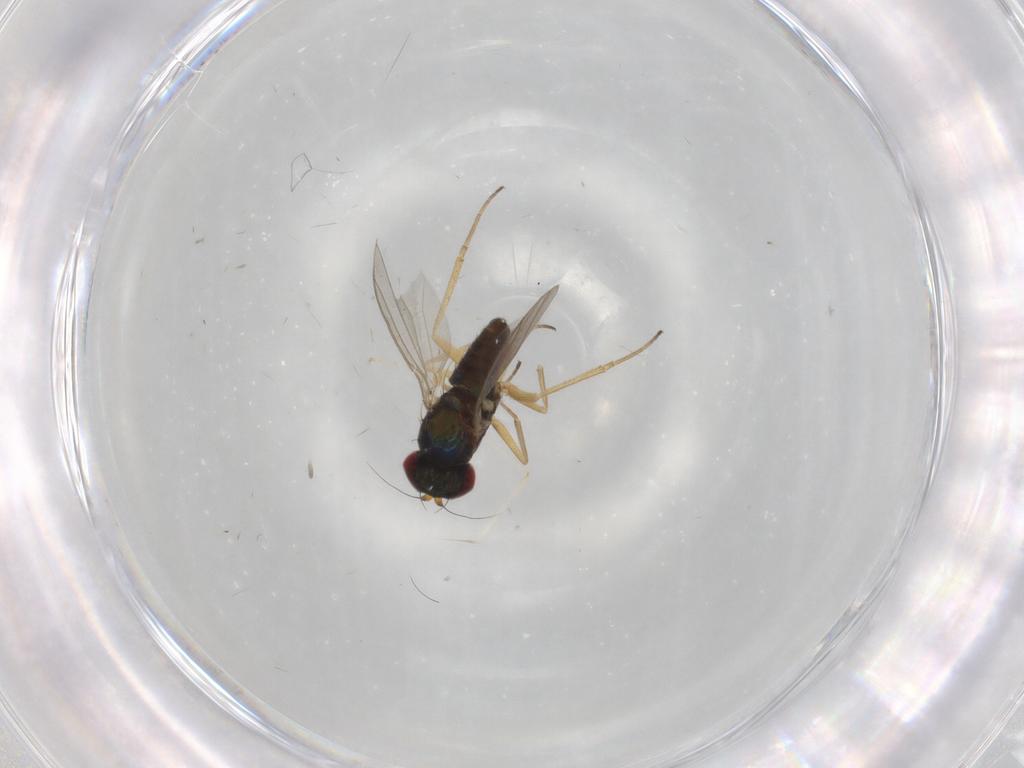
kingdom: Animalia
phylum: Arthropoda
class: Insecta
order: Diptera
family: Dolichopodidae
